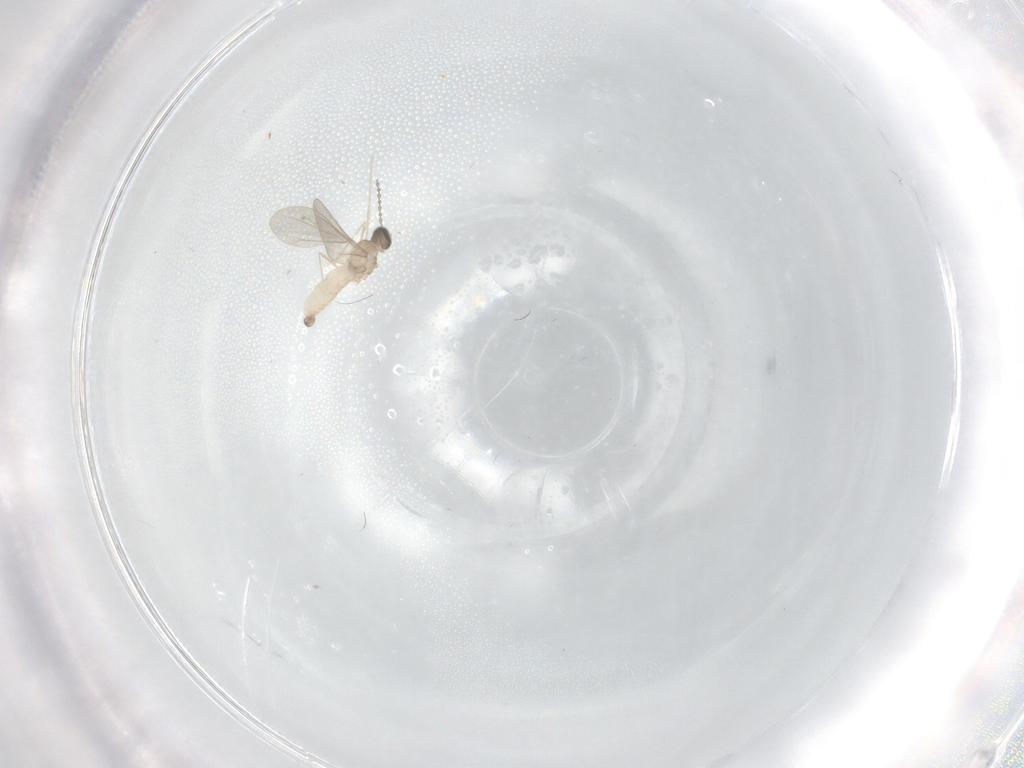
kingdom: Animalia
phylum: Arthropoda
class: Insecta
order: Diptera
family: Cecidomyiidae
